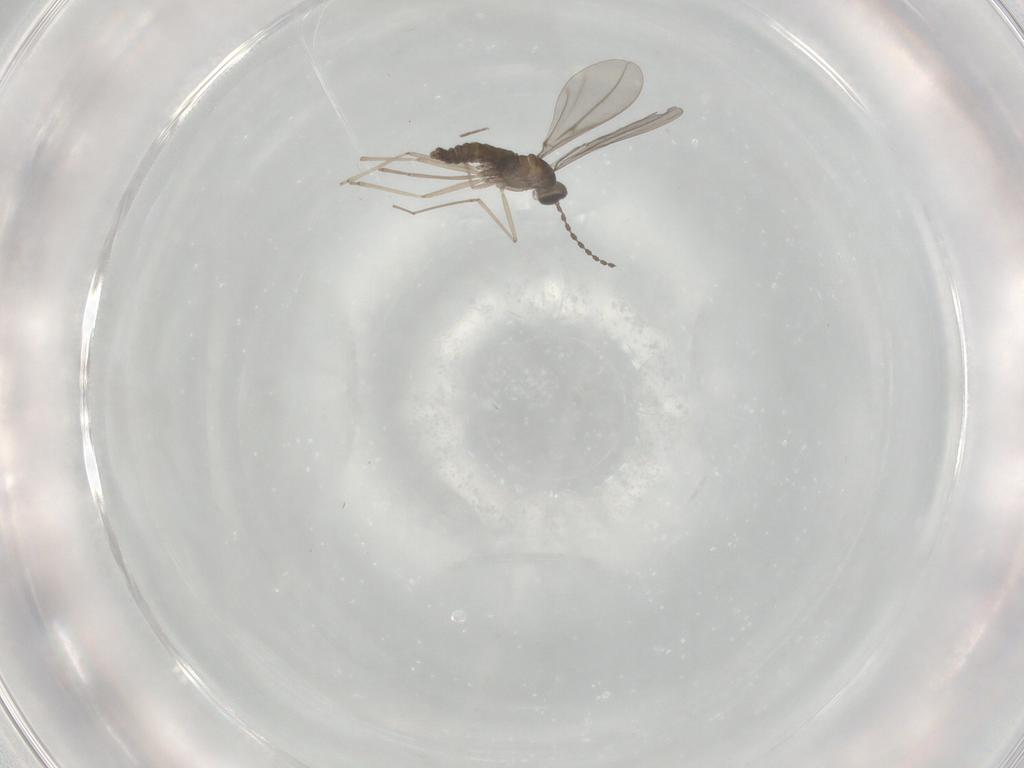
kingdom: Animalia
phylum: Arthropoda
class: Insecta
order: Diptera
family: Phoridae
